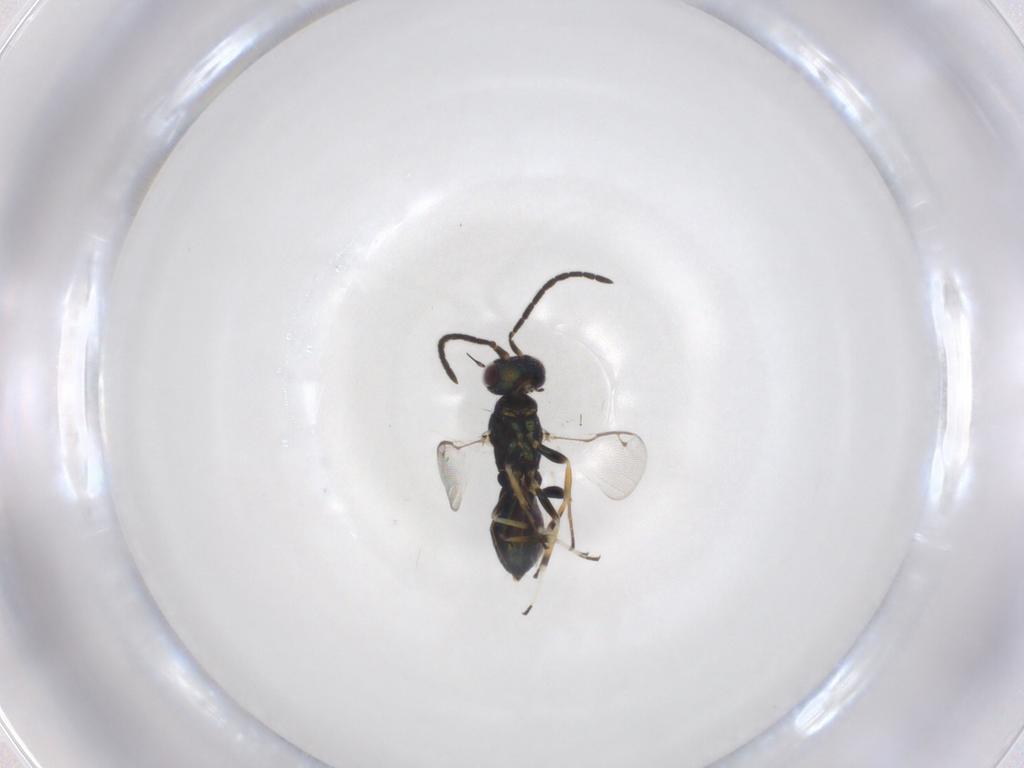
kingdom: Animalia
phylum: Arthropoda
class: Insecta
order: Hymenoptera
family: Eupelmidae
